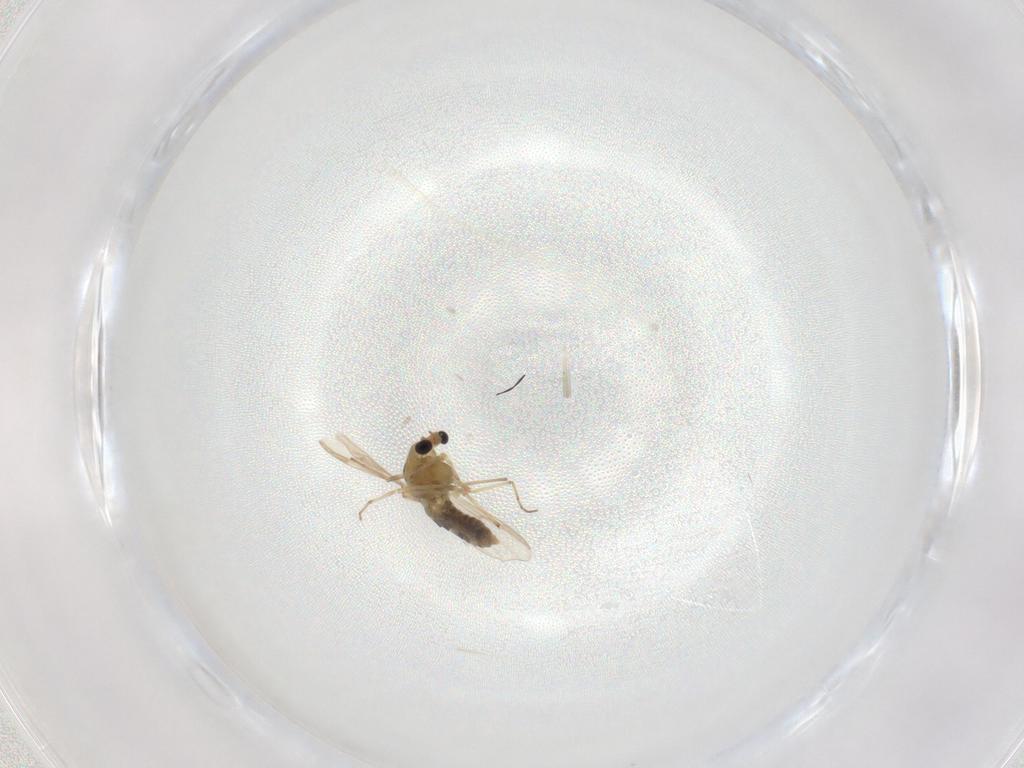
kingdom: Animalia
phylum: Arthropoda
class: Insecta
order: Diptera
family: Chironomidae
